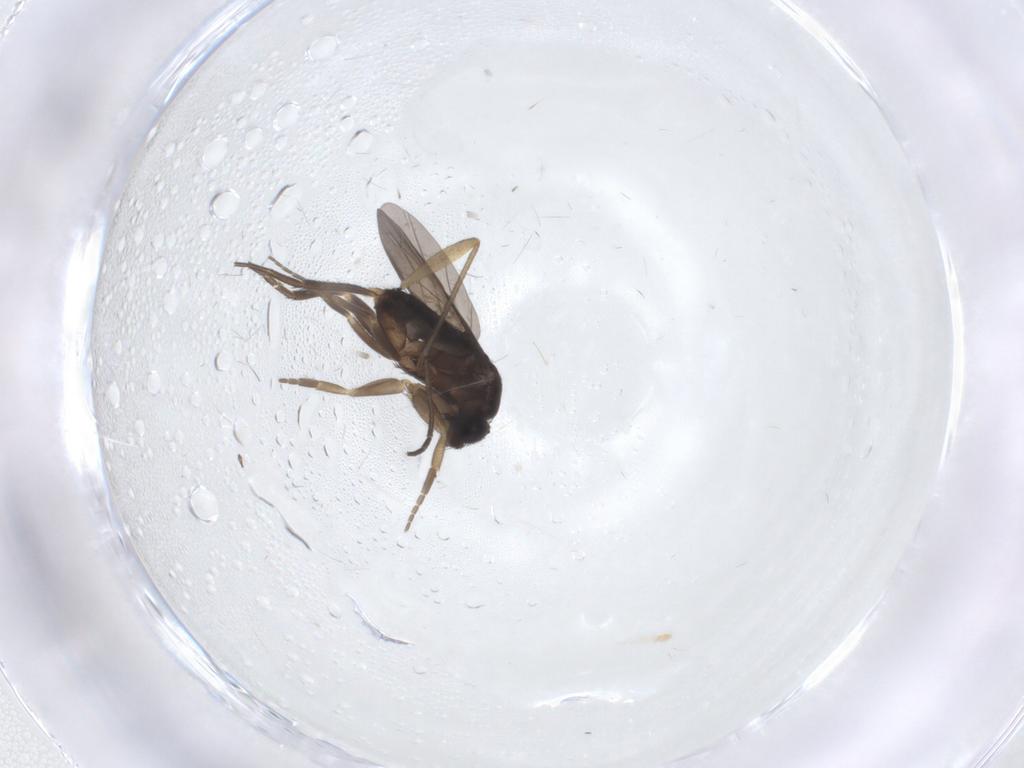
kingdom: Animalia
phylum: Arthropoda
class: Insecta
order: Diptera
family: Phoridae
